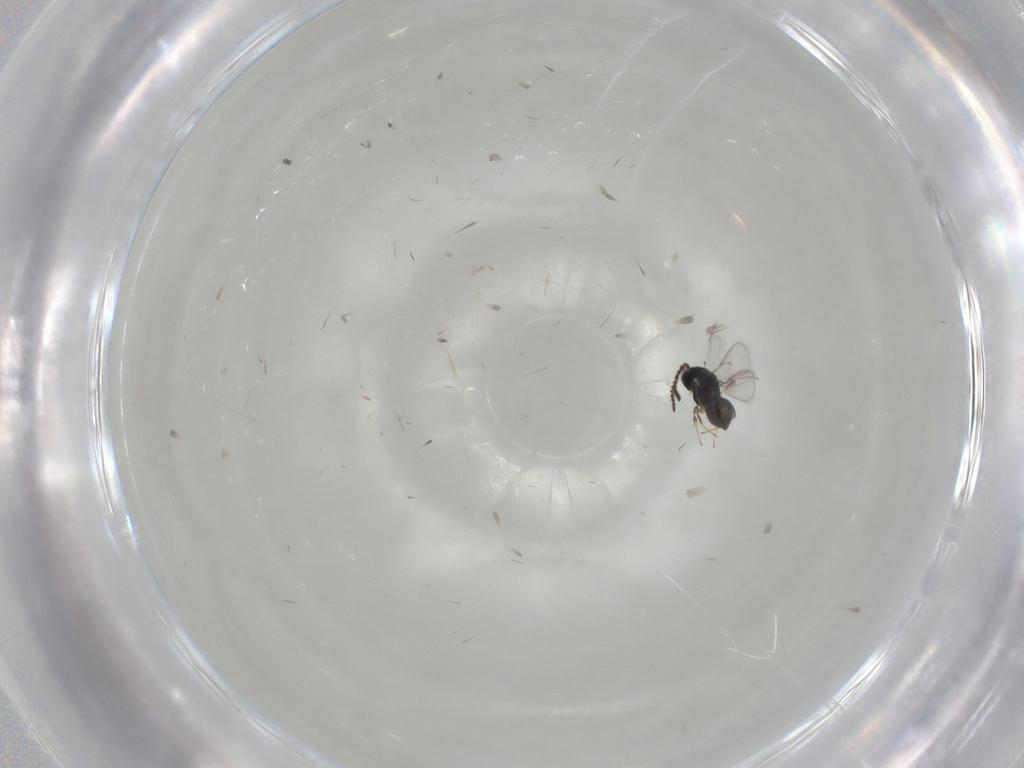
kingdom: Animalia
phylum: Arthropoda
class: Insecta
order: Hymenoptera
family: Scelionidae
